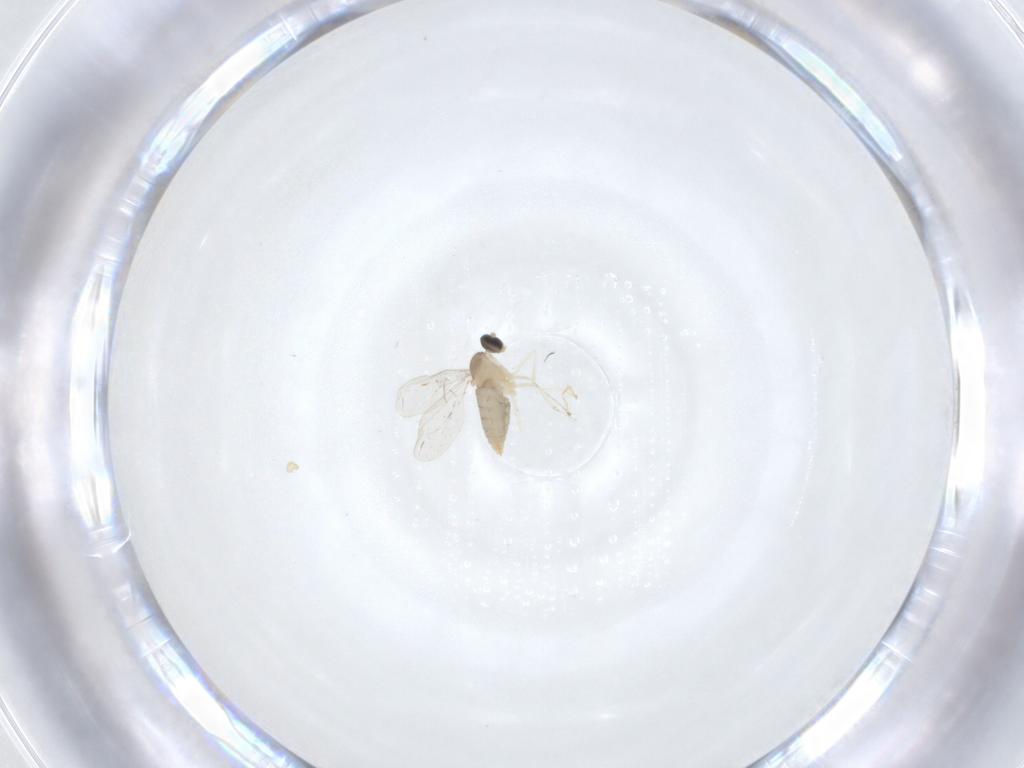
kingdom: Animalia
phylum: Arthropoda
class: Insecta
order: Diptera
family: Cecidomyiidae
